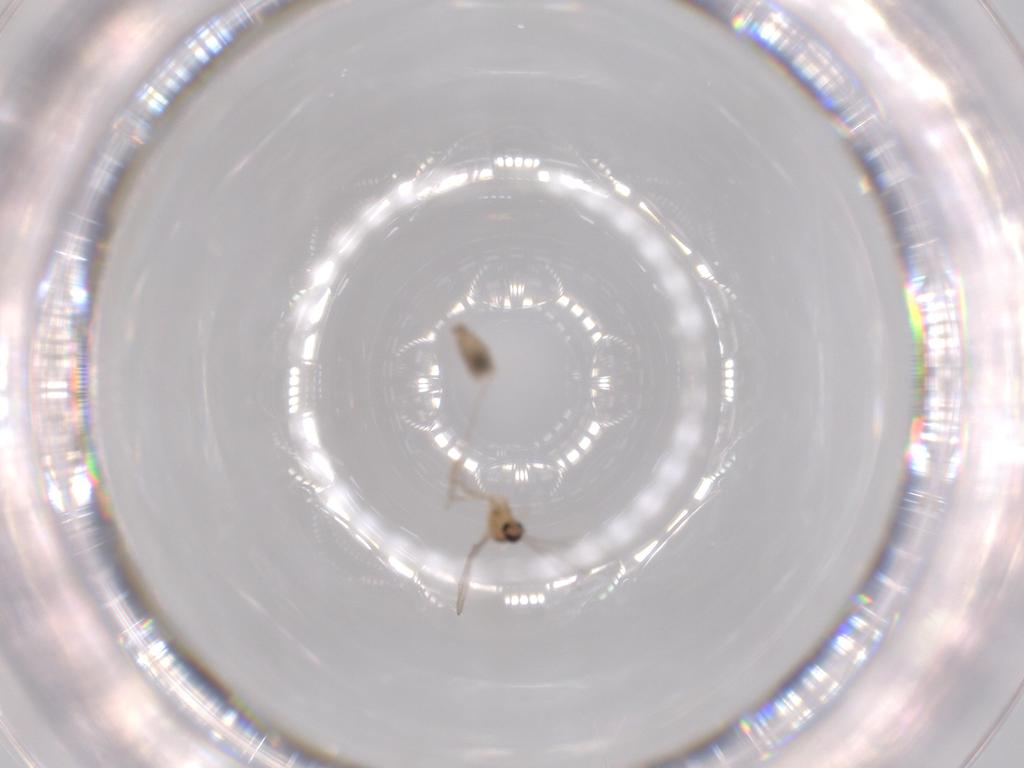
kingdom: Animalia
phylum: Arthropoda
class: Insecta
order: Diptera
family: Cecidomyiidae
